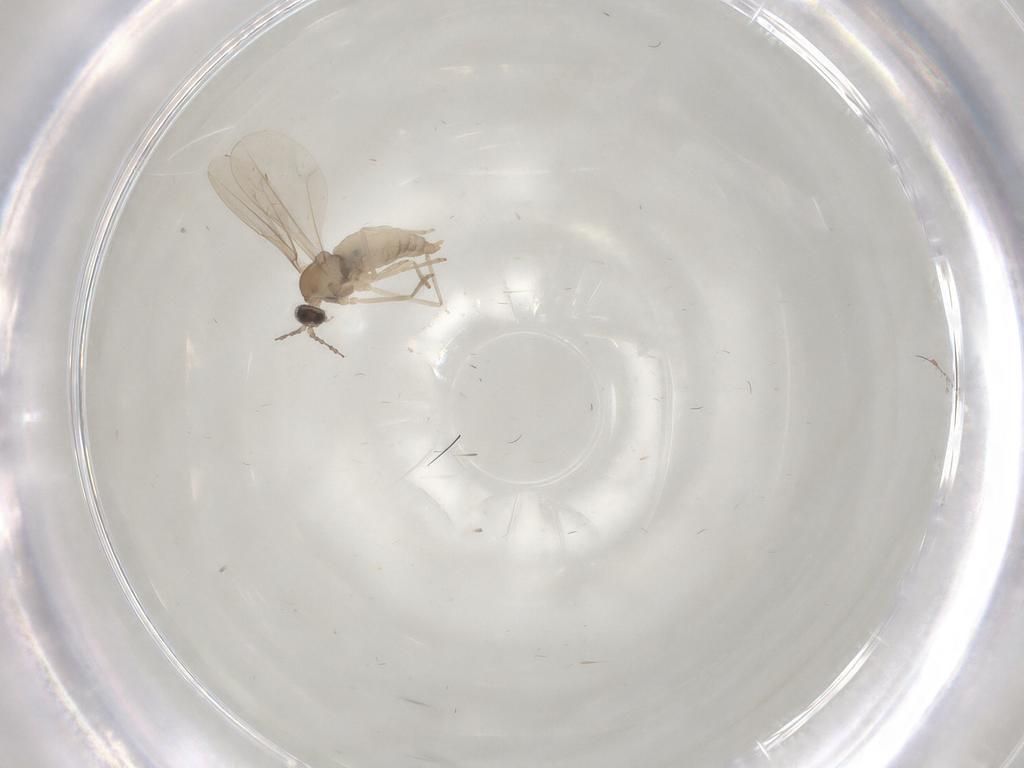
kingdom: Animalia
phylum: Arthropoda
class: Insecta
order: Diptera
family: Cecidomyiidae
